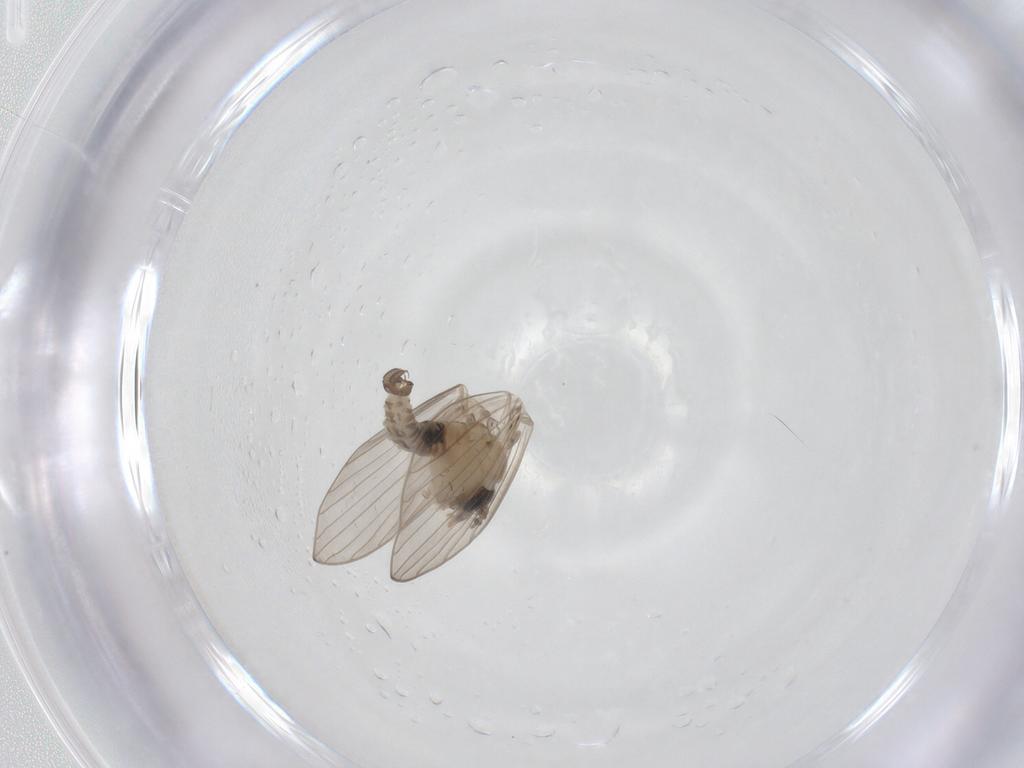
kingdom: Animalia
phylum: Arthropoda
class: Insecta
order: Diptera
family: Psychodidae
